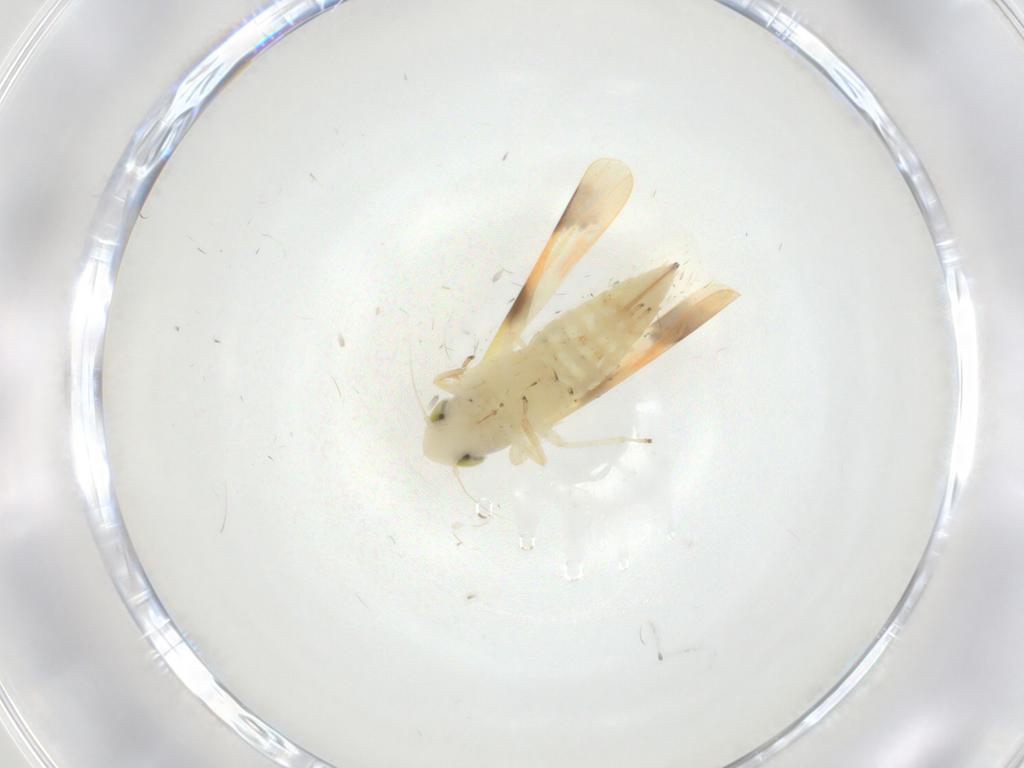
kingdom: Animalia
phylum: Arthropoda
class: Insecta
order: Hemiptera
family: Cicadellidae
